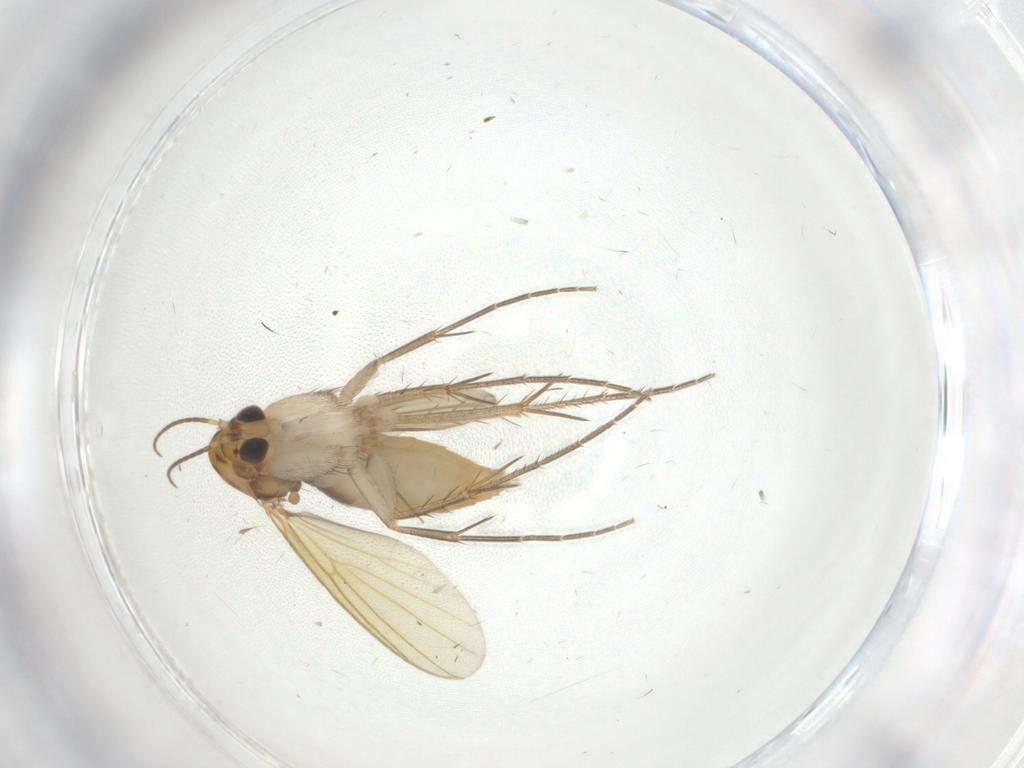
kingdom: Animalia
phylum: Arthropoda
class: Insecta
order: Diptera
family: Mycetophilidae
